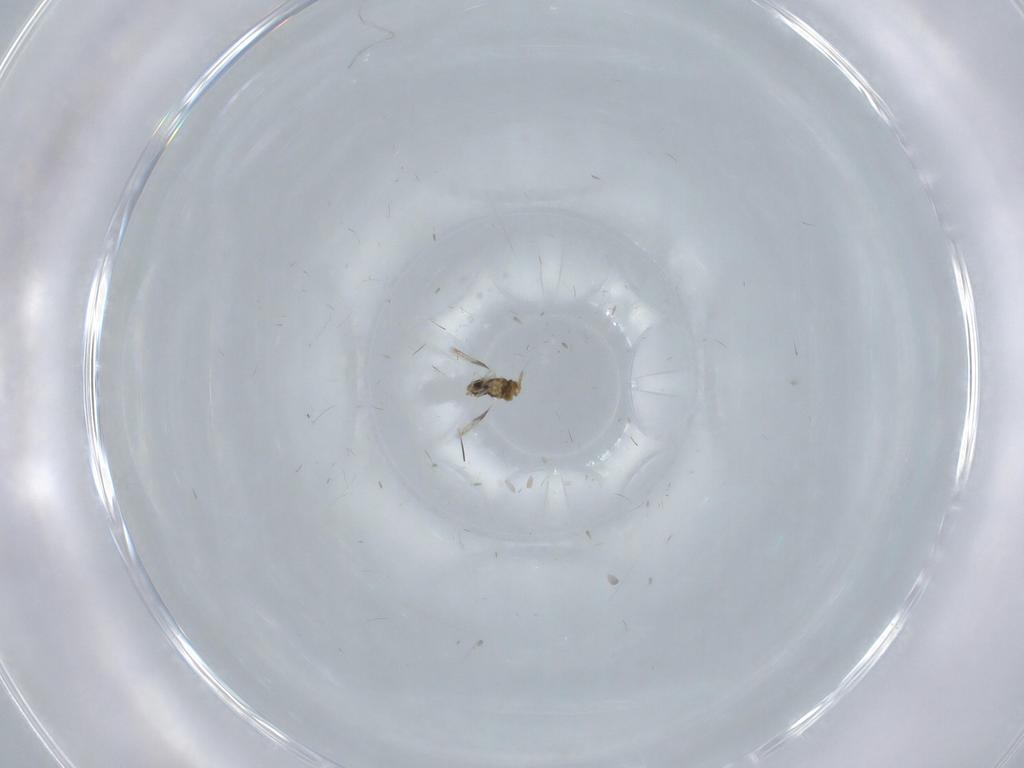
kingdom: Animalia
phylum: Arthropoda
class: Insecta
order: Hymenoptera
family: Aphelinidae
